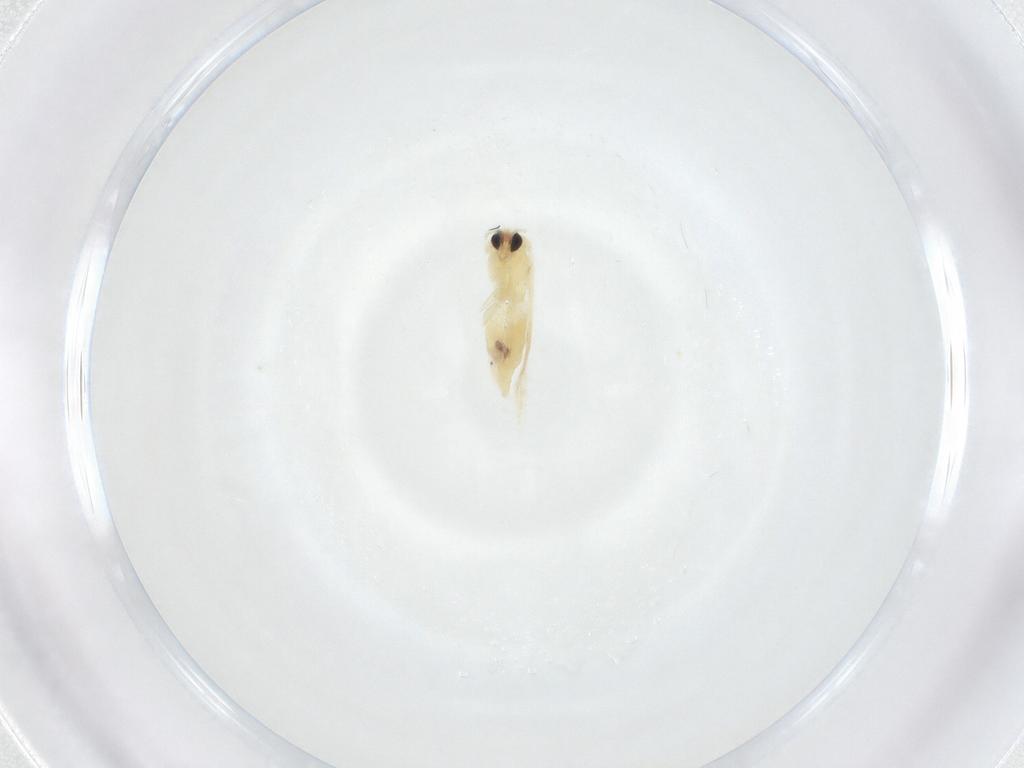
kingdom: Animalia
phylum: Arthropoda
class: Insecta
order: Lepidoptera
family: Nepticulidae
